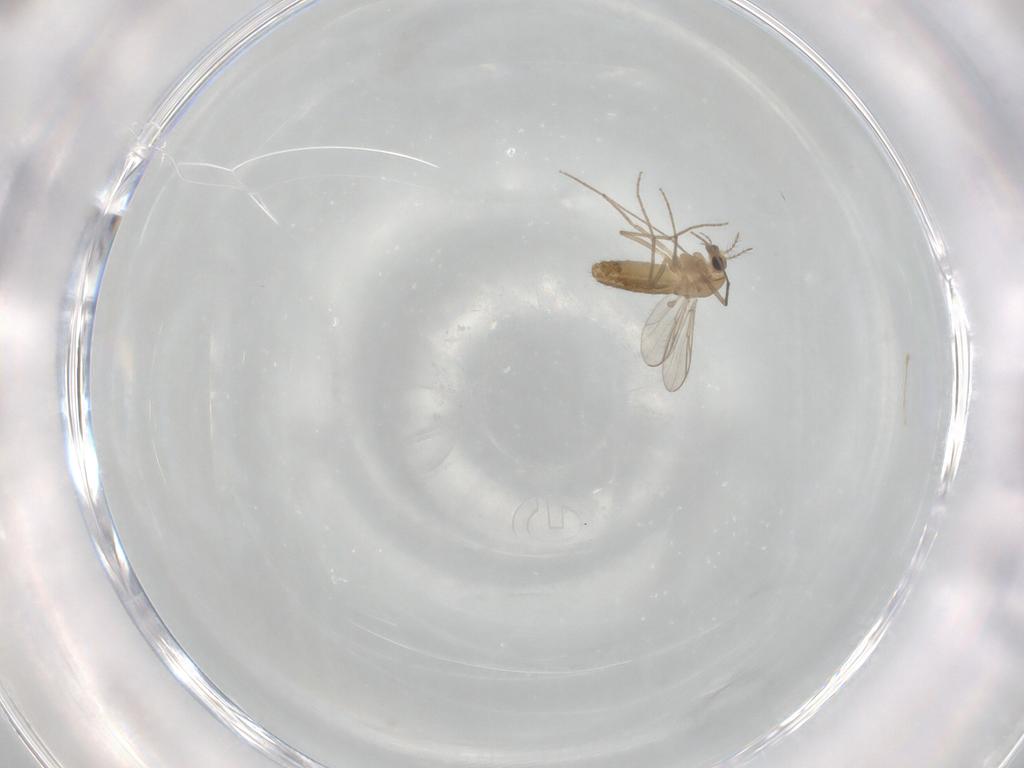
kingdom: Animalia
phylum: Arthropoda
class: Insecta
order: Diptera
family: Chironomidae
